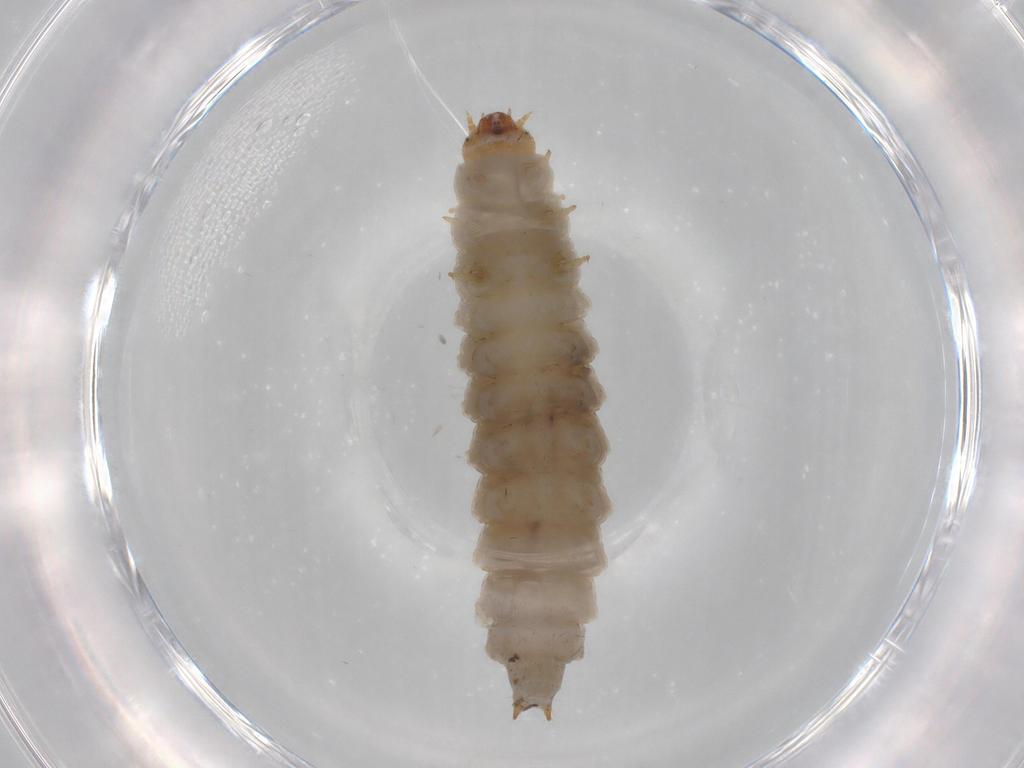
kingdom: Animalia
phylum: Arthropoda
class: Insecta
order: Coleoptera
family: Nitidulidae
